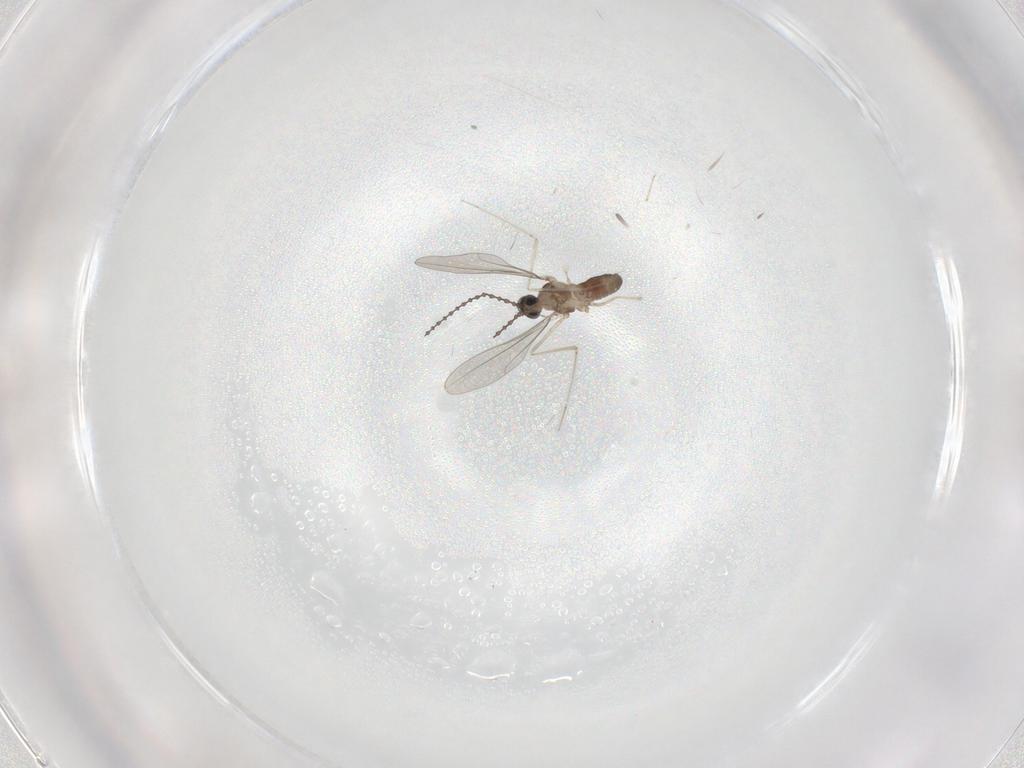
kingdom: Animalia
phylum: Arthropoda
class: Insecta
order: Diptera
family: Cecidomyiidae
